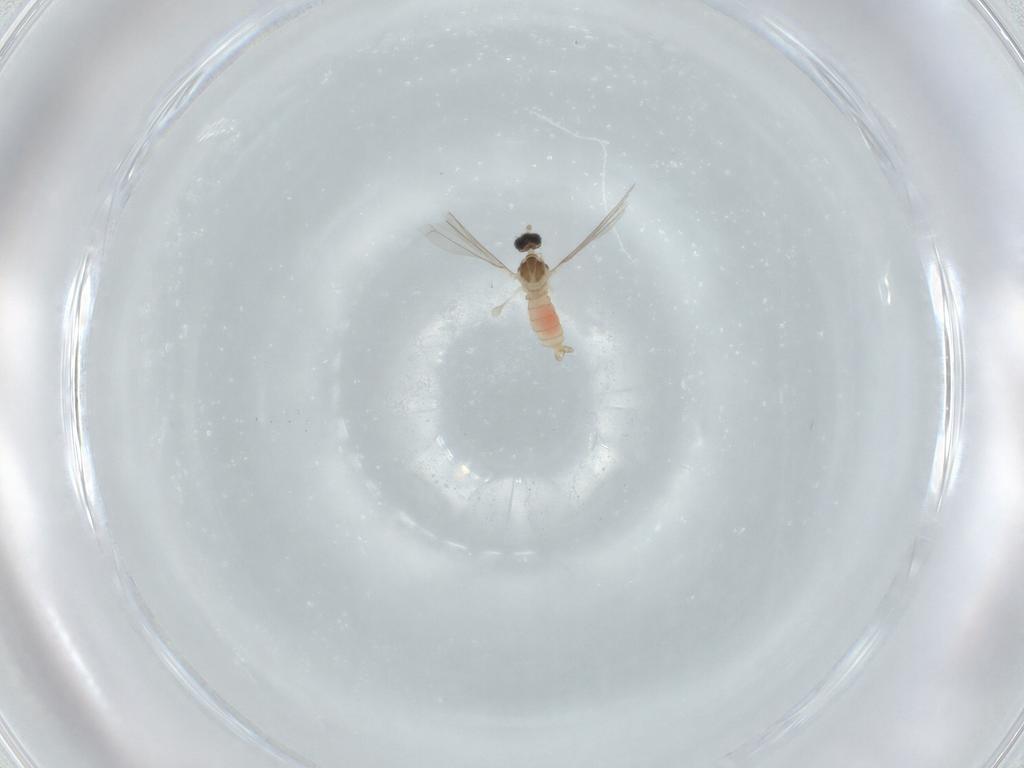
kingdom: Animalia
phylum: Arthropoda
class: Insecta
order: Diptera
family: Cecidomyiidae
